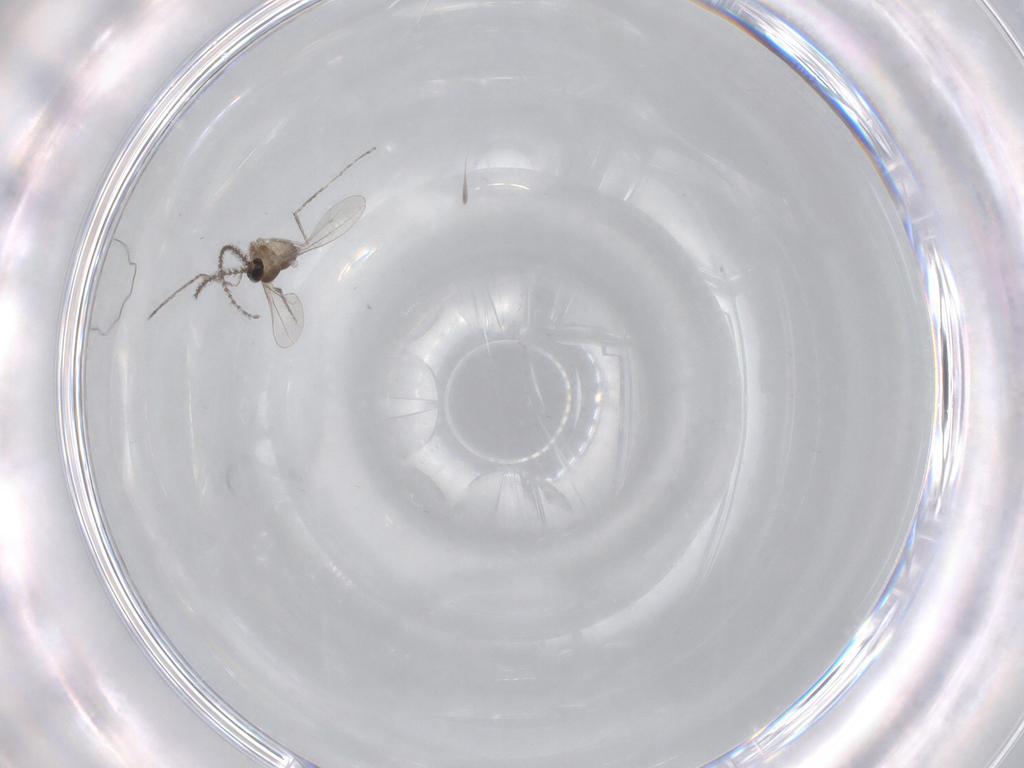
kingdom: Animalia
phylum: Arthropoda
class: Insecta
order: Diptera
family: Cecidomyiidae
